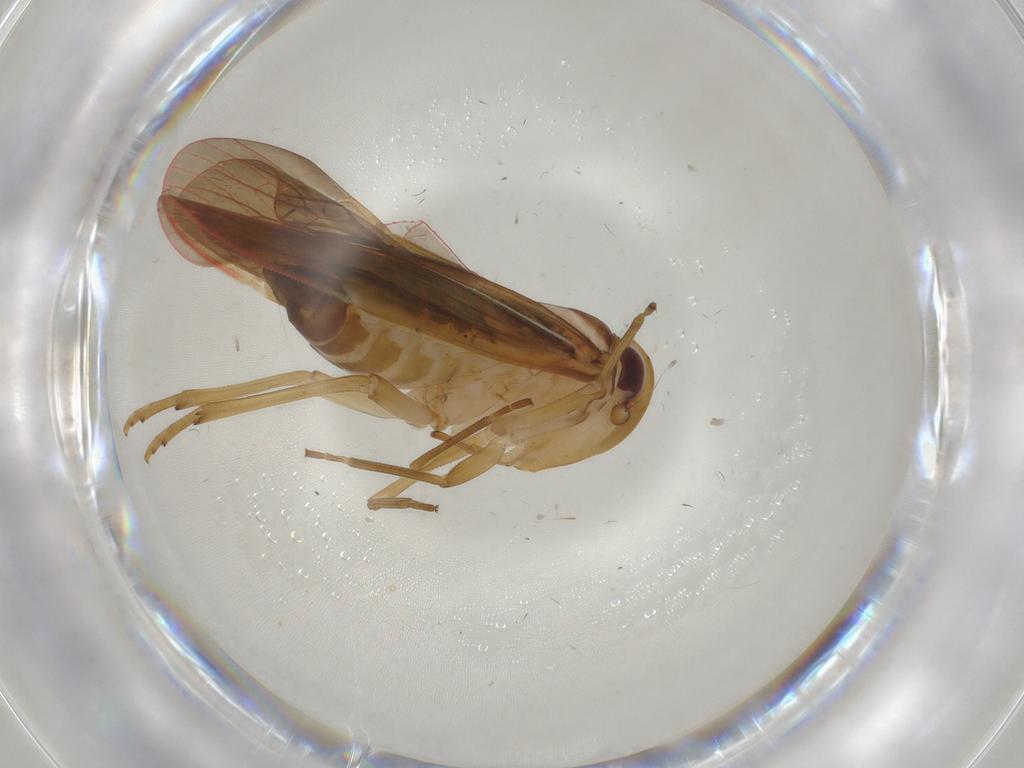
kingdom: Animalia
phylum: Arthropoda
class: Insecta
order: Hemiptera
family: Achilidae
